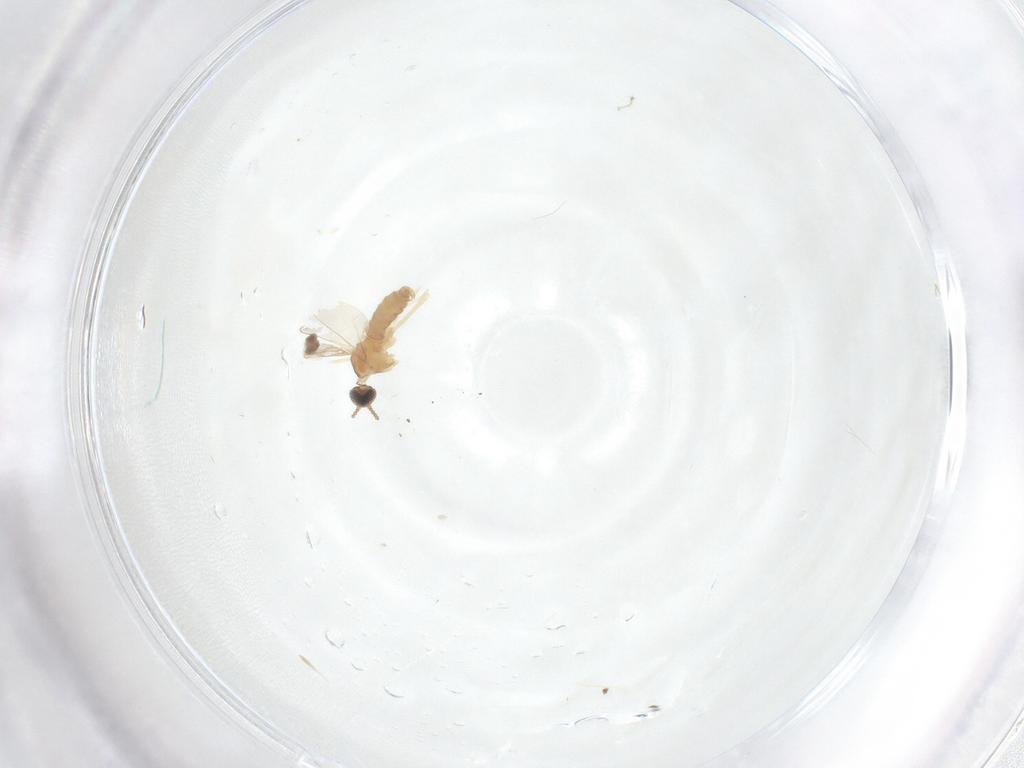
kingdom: Animalia
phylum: Arthropoda
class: Insecta
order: Diptera
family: Cecidomyiidae
